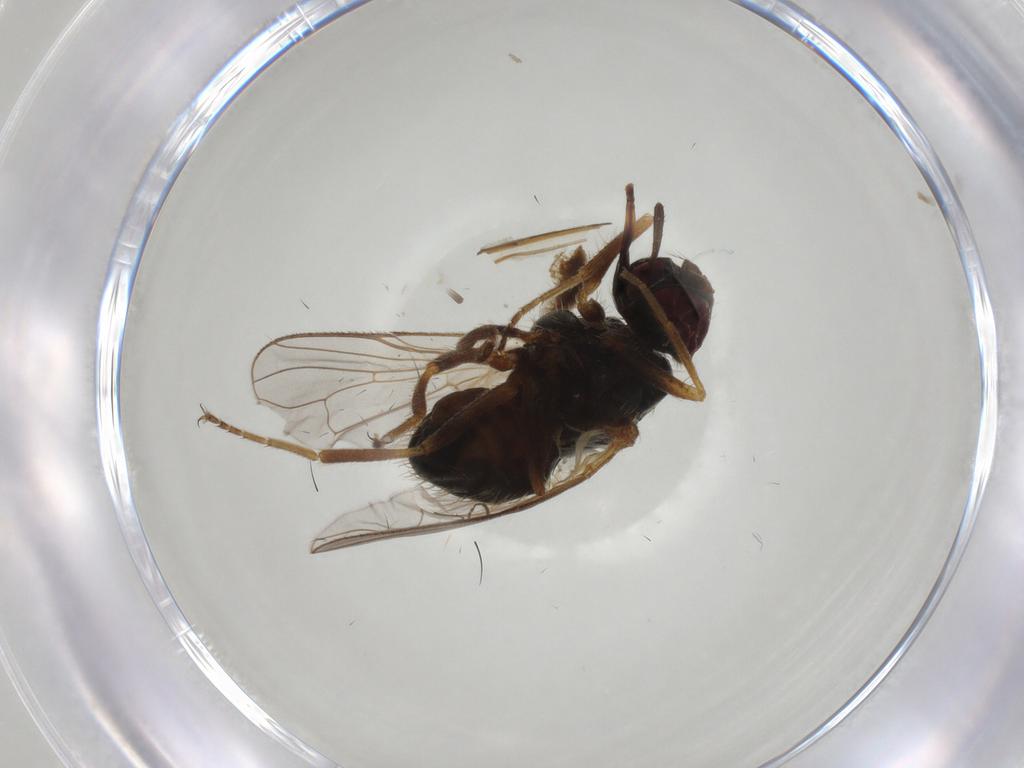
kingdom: Animalia
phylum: Arthropoda
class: Insecta
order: Diptera
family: Muscidae
